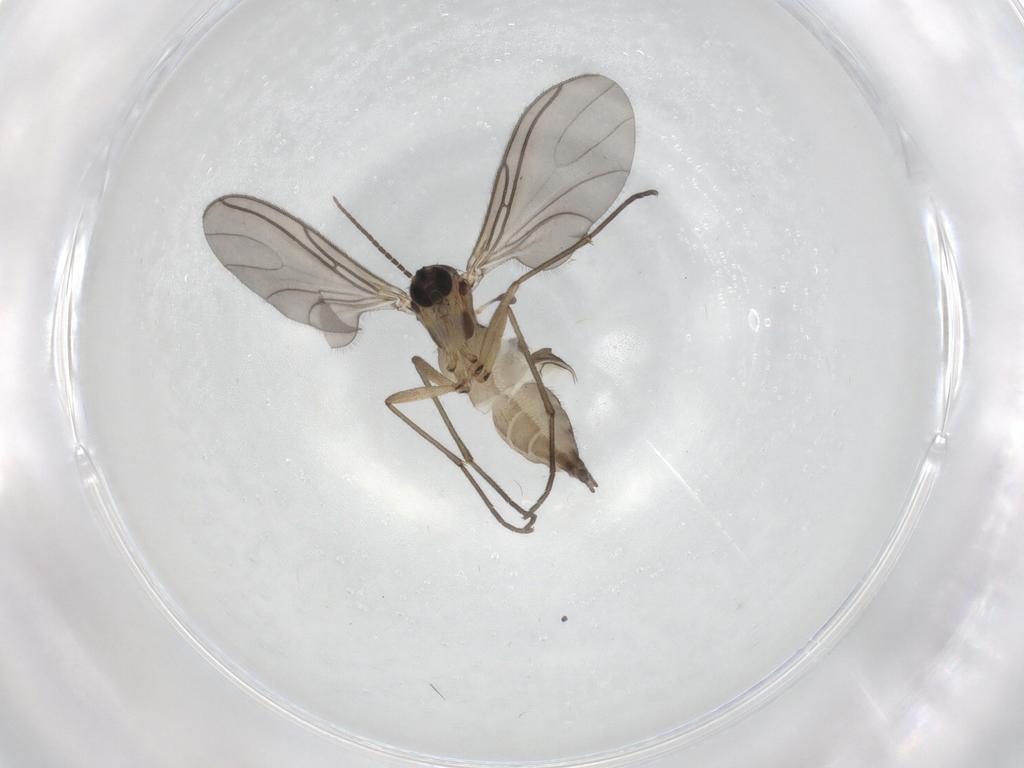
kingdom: Animalia
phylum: Arthropoda
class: Insecta
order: Diptera
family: Sciaridae
